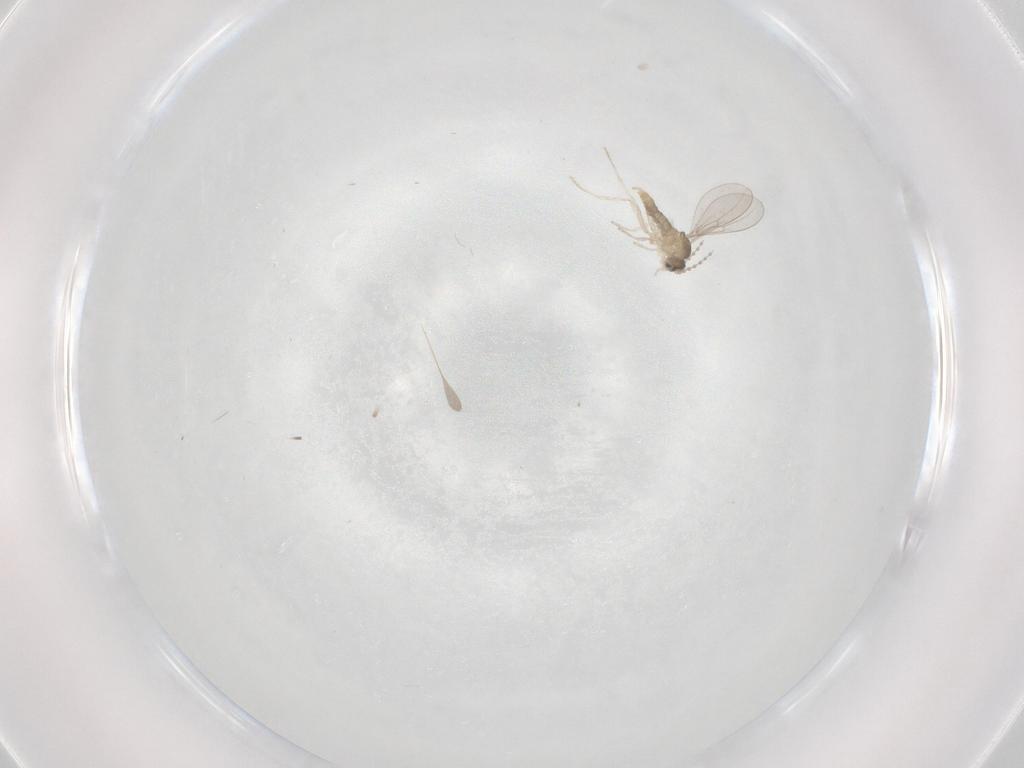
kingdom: Animalia
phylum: Arthropoda
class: Insecta
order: Diptera
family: Cecidomyiidae
